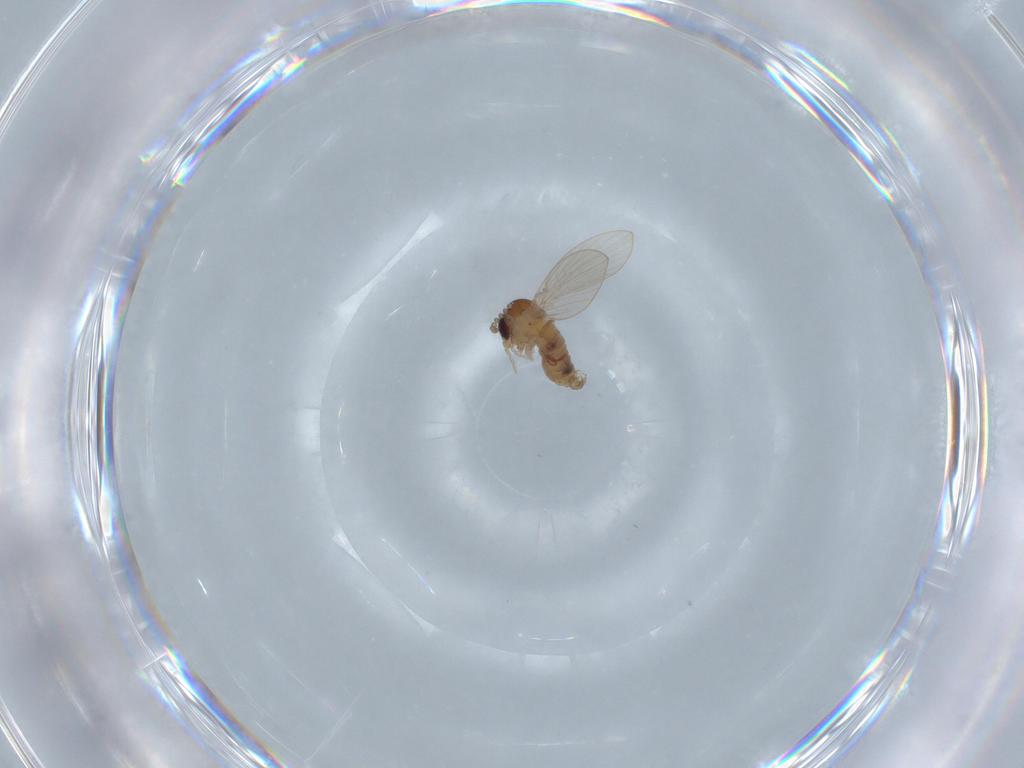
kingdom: Animalia
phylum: Arthropoda
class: Insecta
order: Diptera
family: Psychodidae
